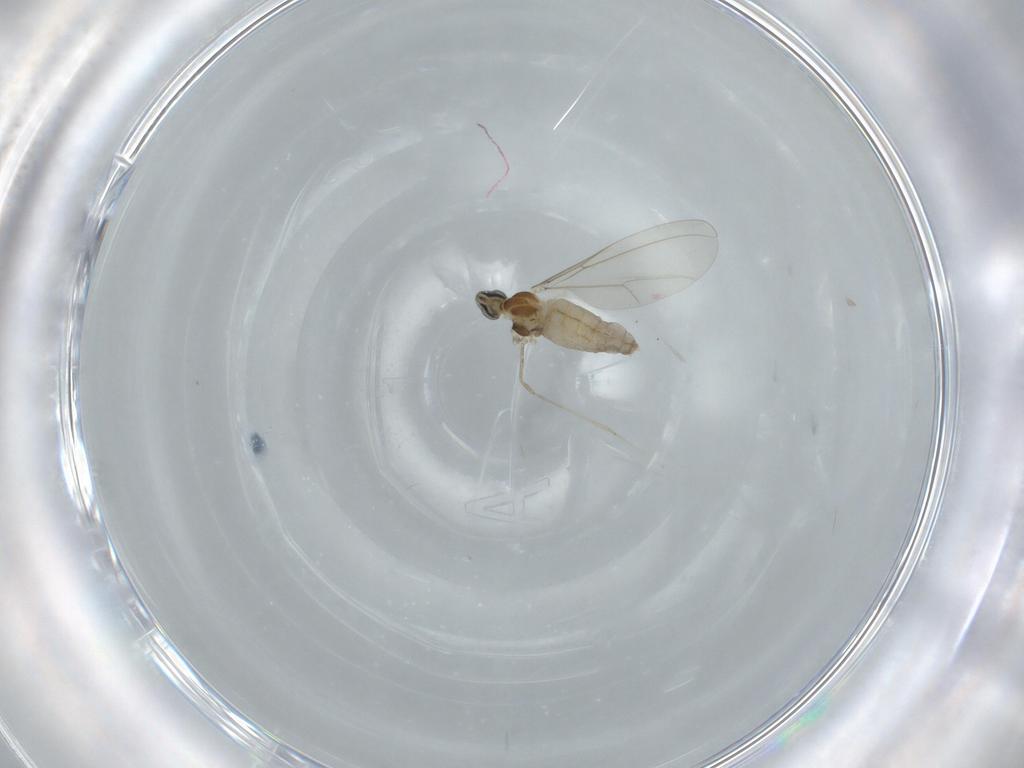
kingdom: Animalia
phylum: Arthropoda
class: Insecta
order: Diptera
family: Cecidomyiidae
